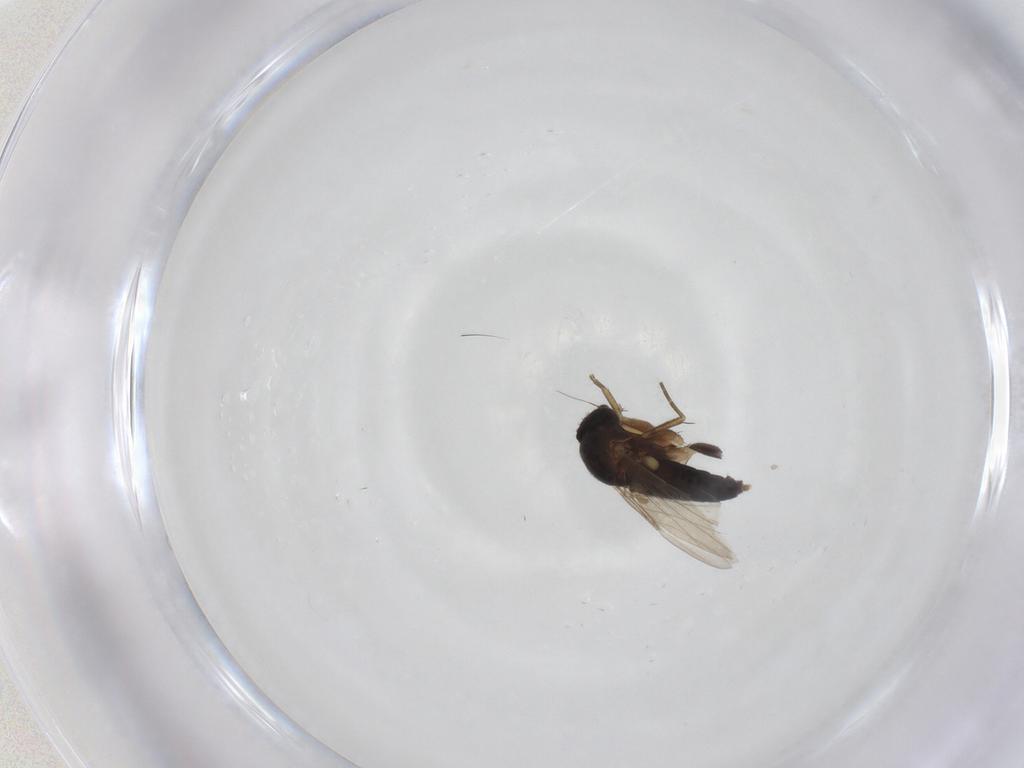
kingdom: Animalia
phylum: Arthropoda
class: Insecta
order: Diptera
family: Phoridae
